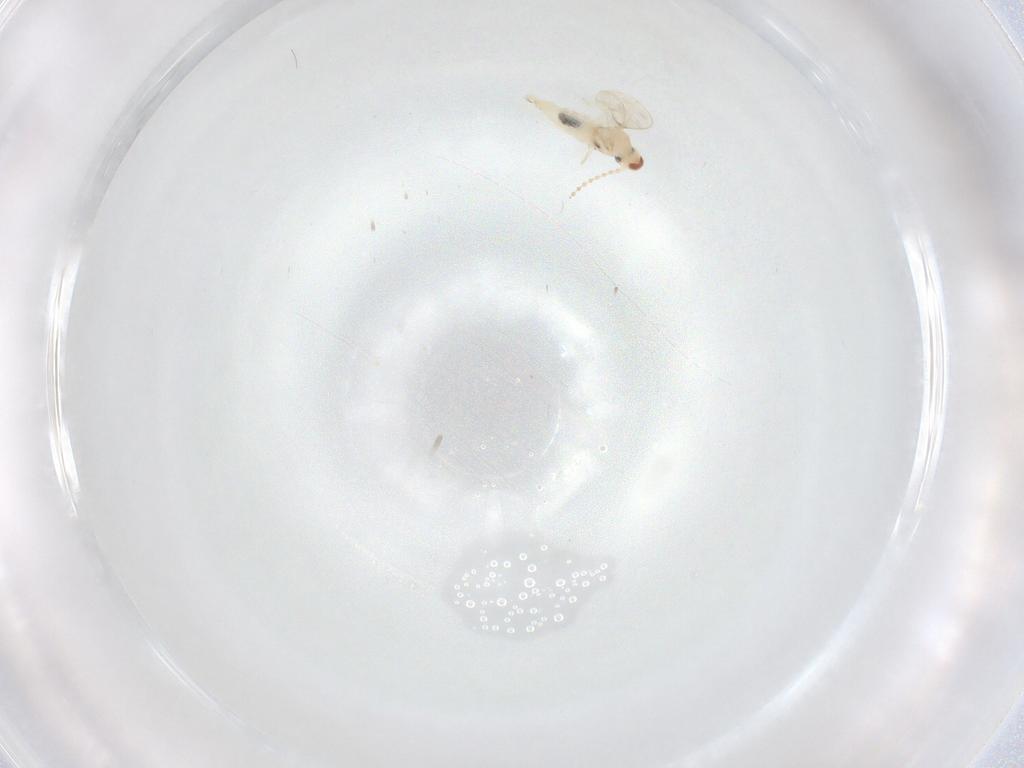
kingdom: Animalia
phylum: Arthropoda
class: Insecta
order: Diptera
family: Cecidomyiidae
